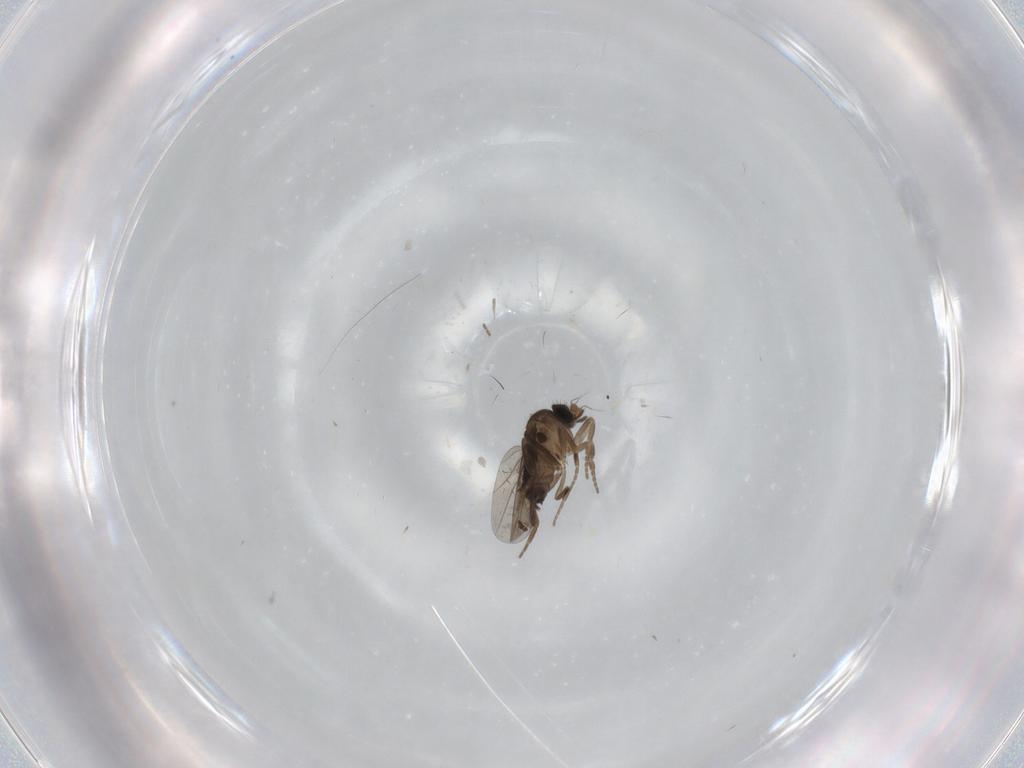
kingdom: Animalia
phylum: Arthropoda
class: Insecta
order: Diptera
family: Phoridae
